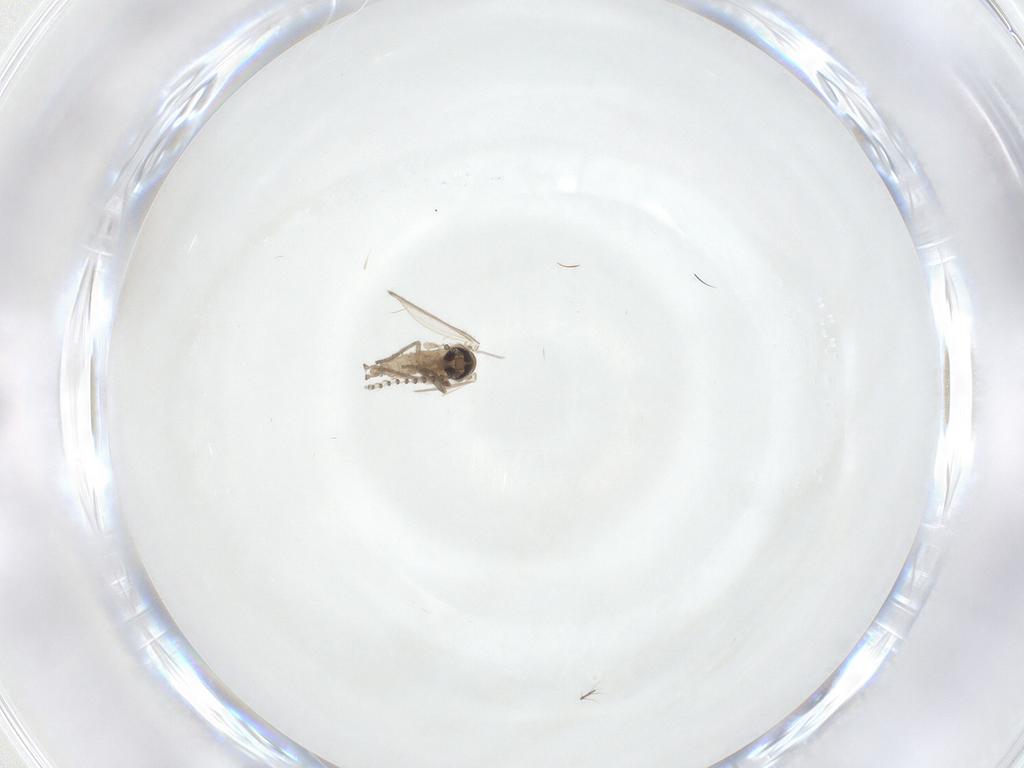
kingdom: Animalia
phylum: Arthropoda
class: Insecta
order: Diptera
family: Chironomidae
